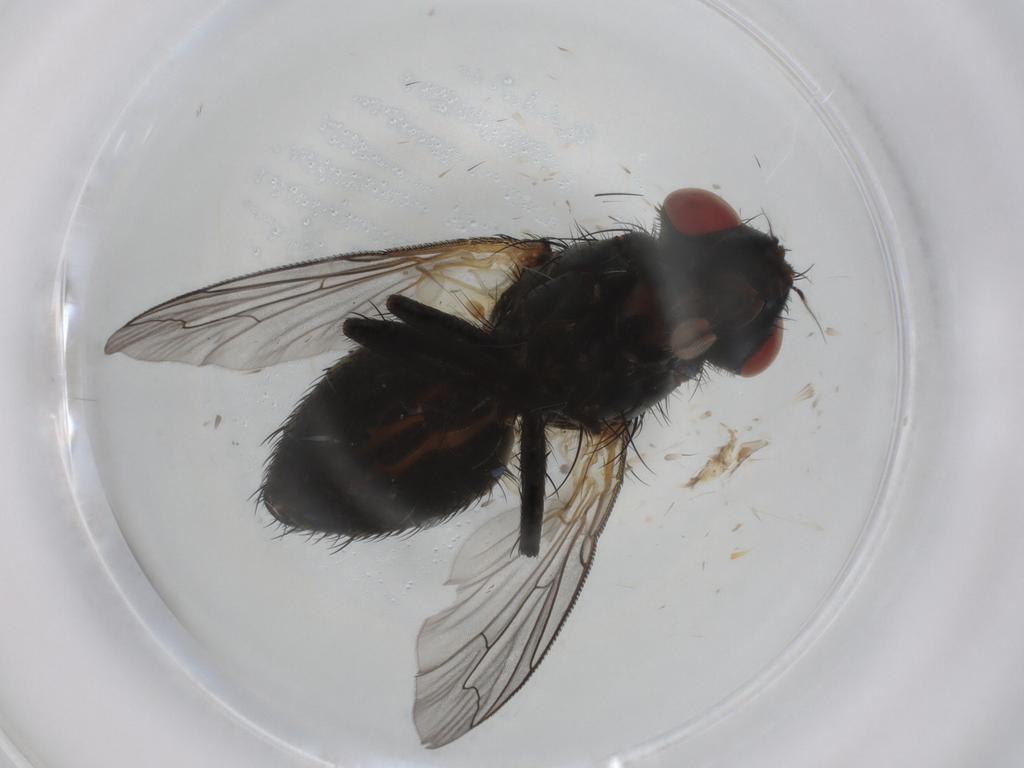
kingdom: Animalia
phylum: Arthropoda
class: Insecta
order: Diptera
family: Sarcophagidae
